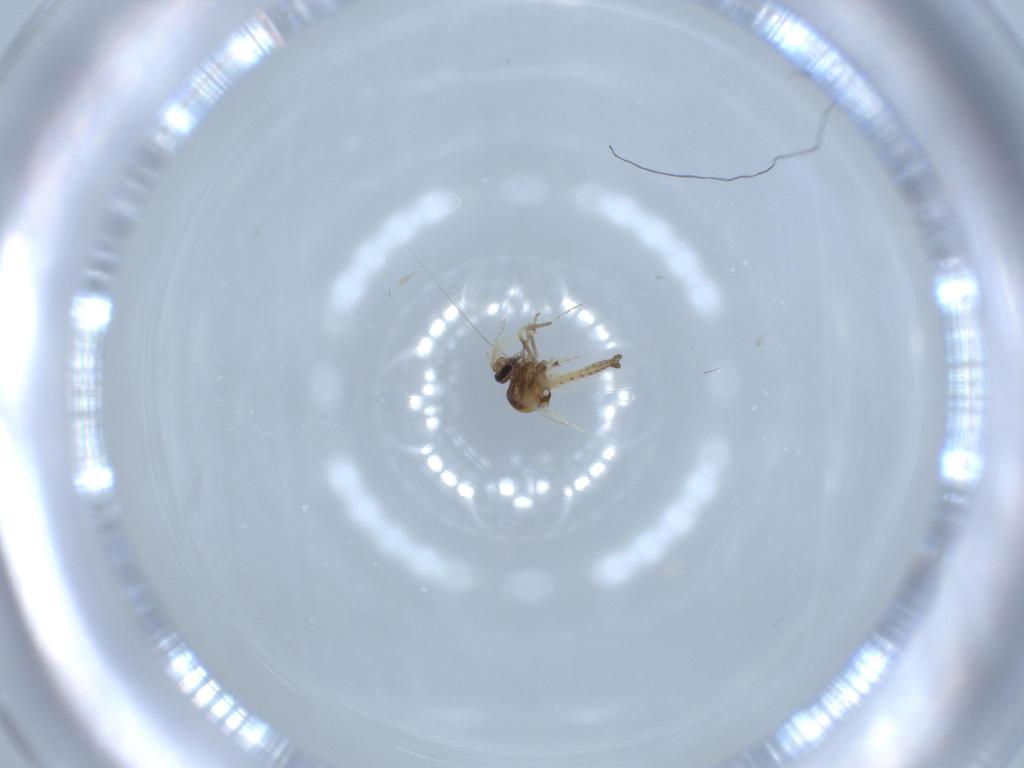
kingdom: Animalia
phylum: Arthropoda
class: Insecta
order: Diptera
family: Ceratopogonidae
